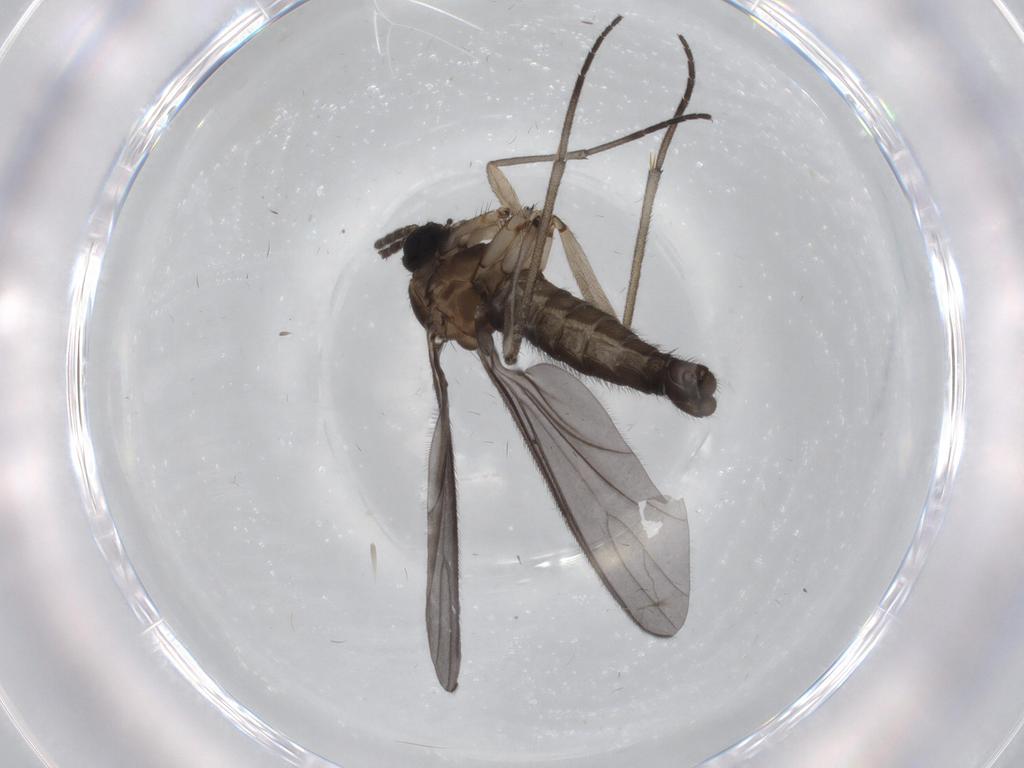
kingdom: Animalia
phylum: Arthropoda
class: Insecta
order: Diptera
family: Sciaridae
